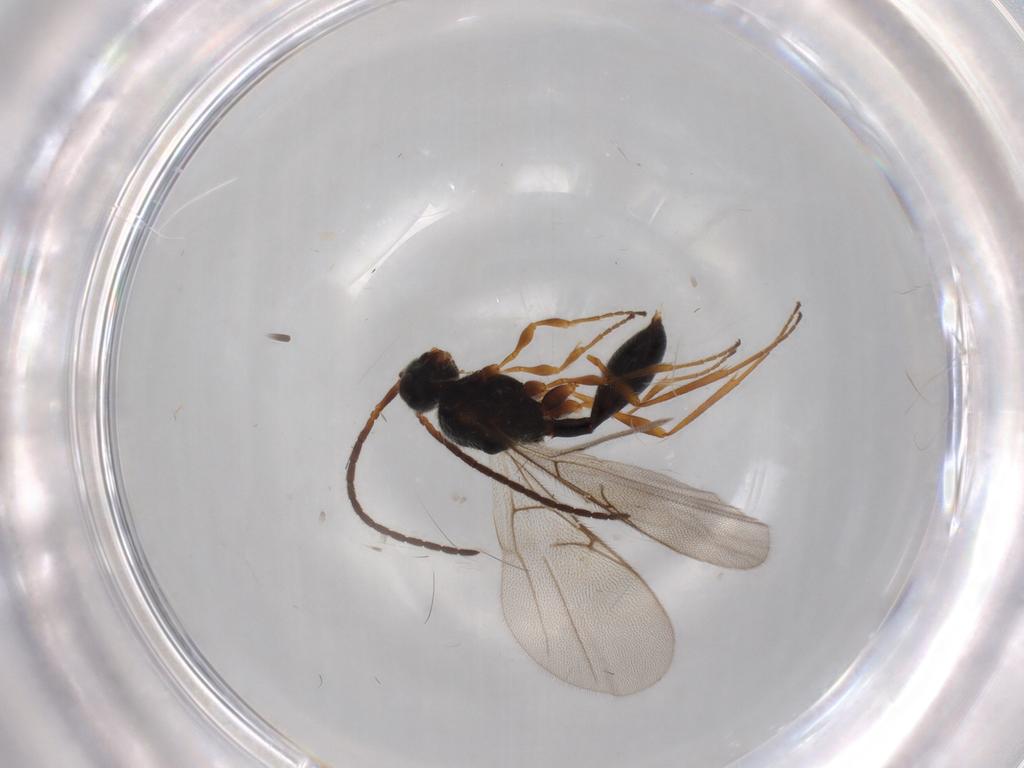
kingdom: Animalia
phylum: Arthropoda
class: Insecta
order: Hymenoptera
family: Diapriidae
